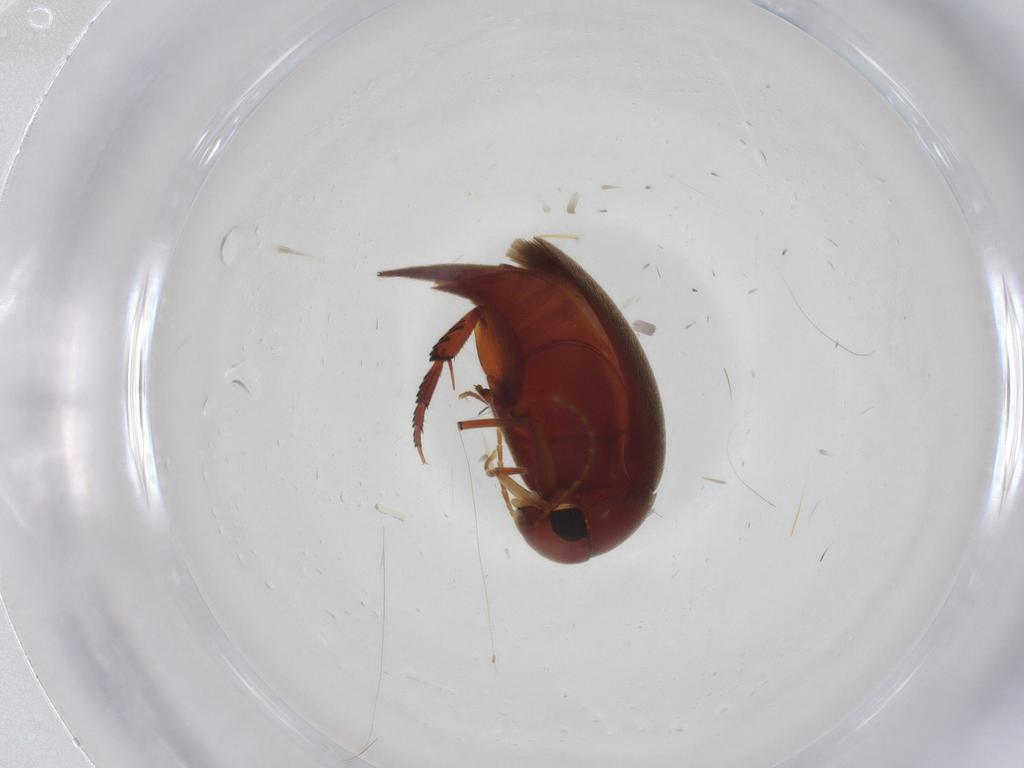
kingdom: Animalia
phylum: Arthropoda
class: Insecta
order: Coleoptera
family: Mordellidae
